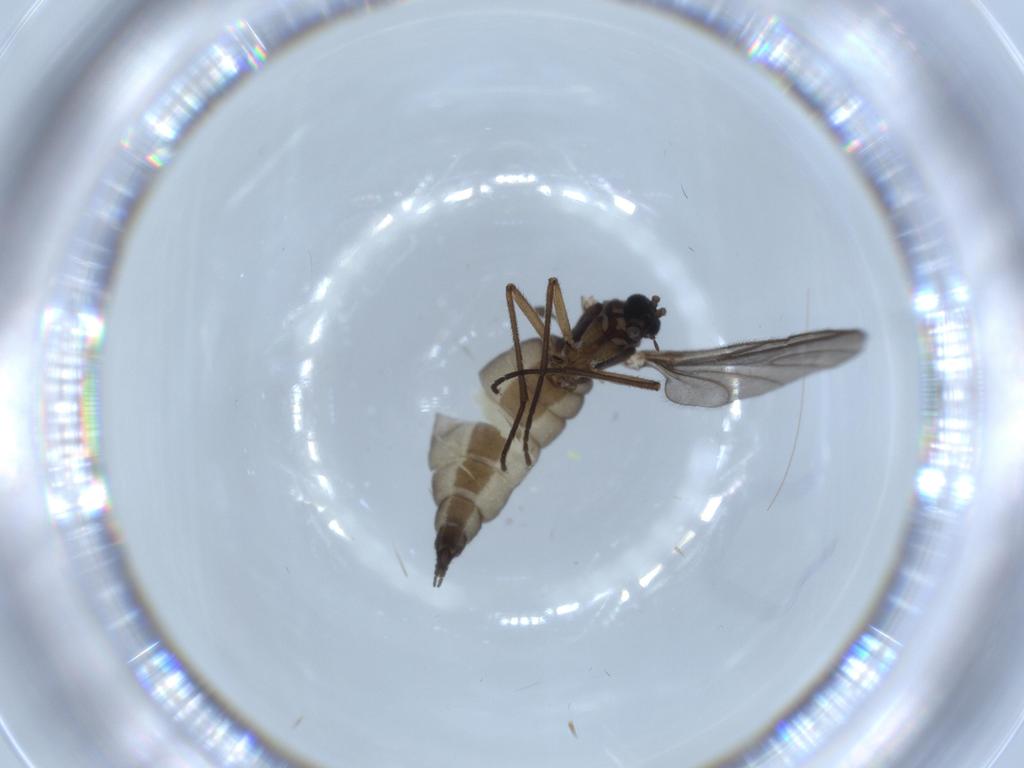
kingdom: Animalia
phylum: Arthropoda
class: Insecta
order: Diptera
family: Sciaridae
